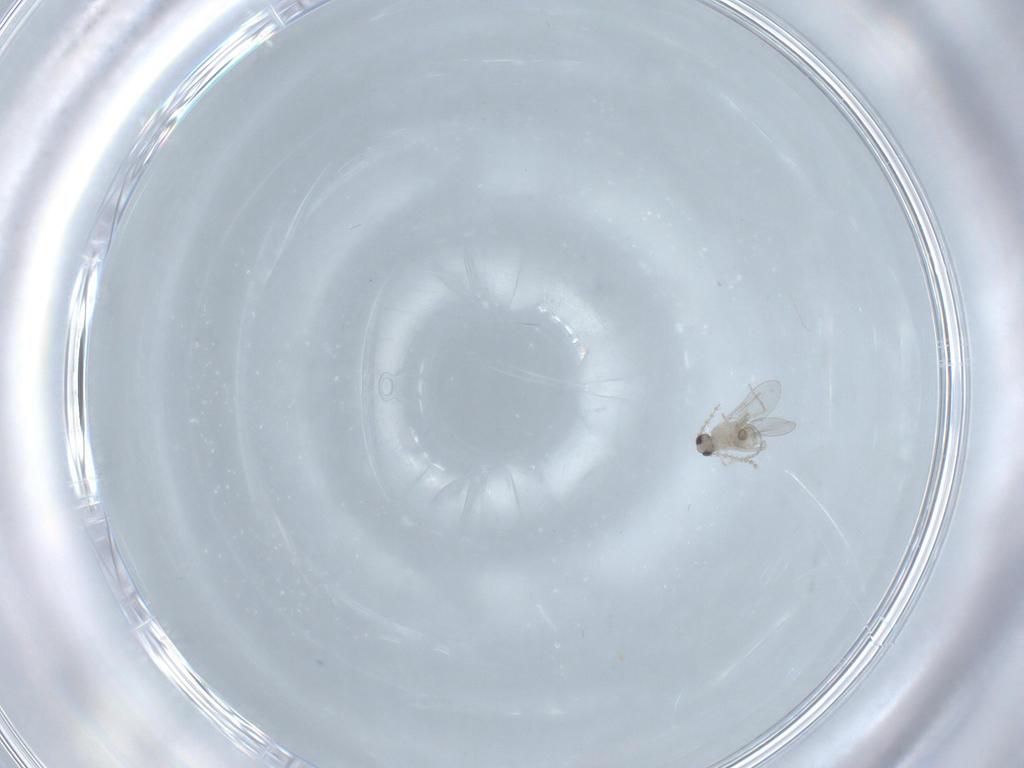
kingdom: Animalia
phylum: Arthropoda
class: Insecta
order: Diptera
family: Cecidomyiidae
